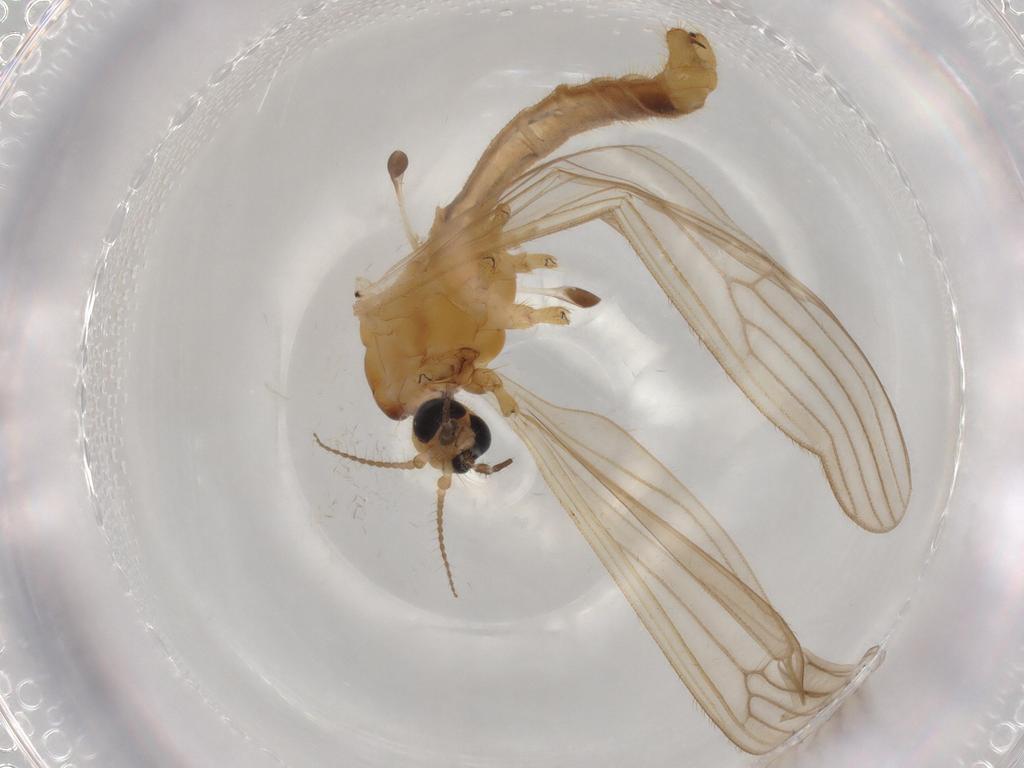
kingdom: Animalia
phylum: Arthropoda
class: Insecta
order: Diptera
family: Limoniidae
